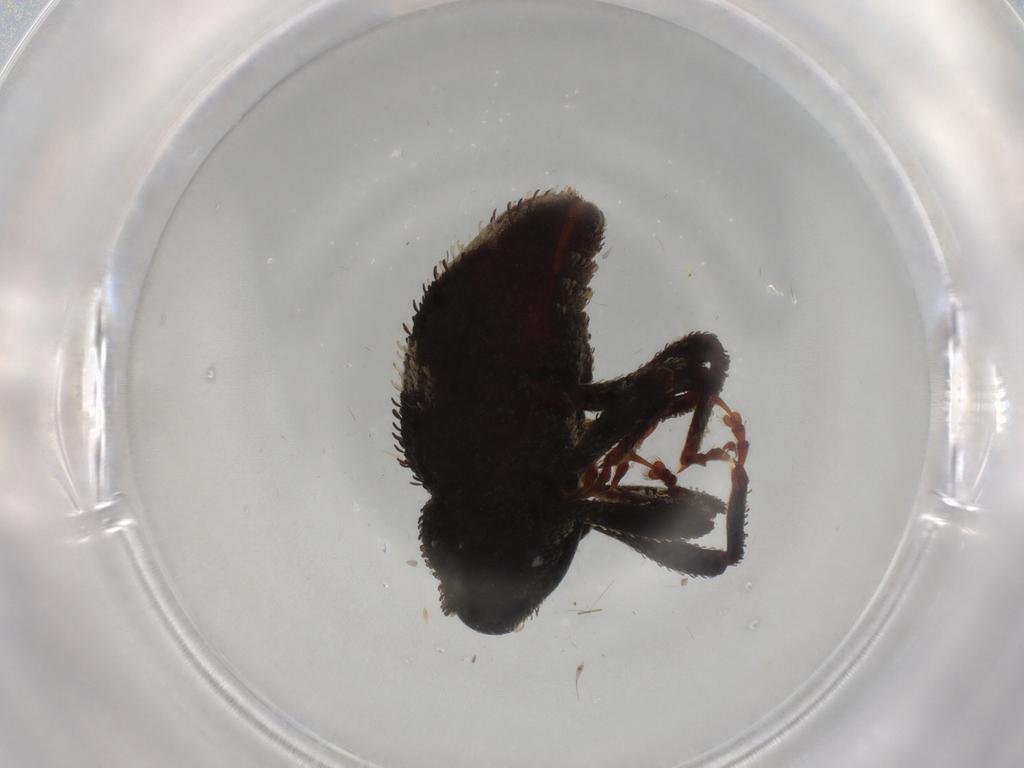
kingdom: Animalia
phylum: Arthropoda
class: Insecta
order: Coleoptera
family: Curculionidae
